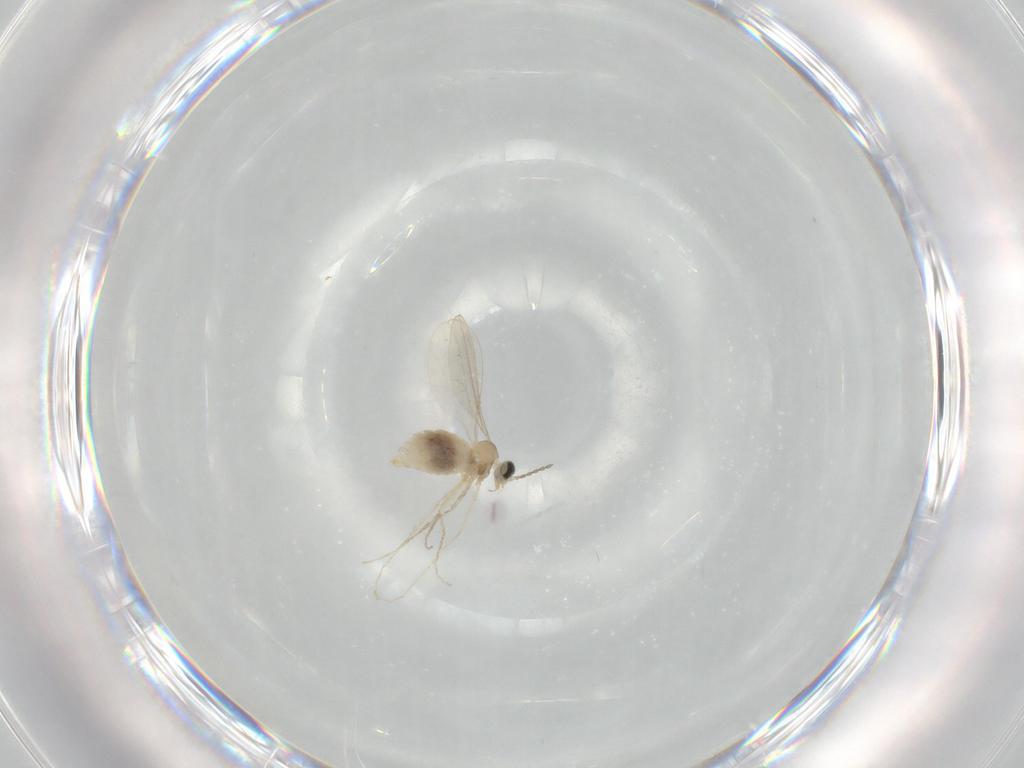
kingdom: Animalia
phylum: Arthropoda
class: Insecta
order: Diptera
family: Cecidomyiidae
